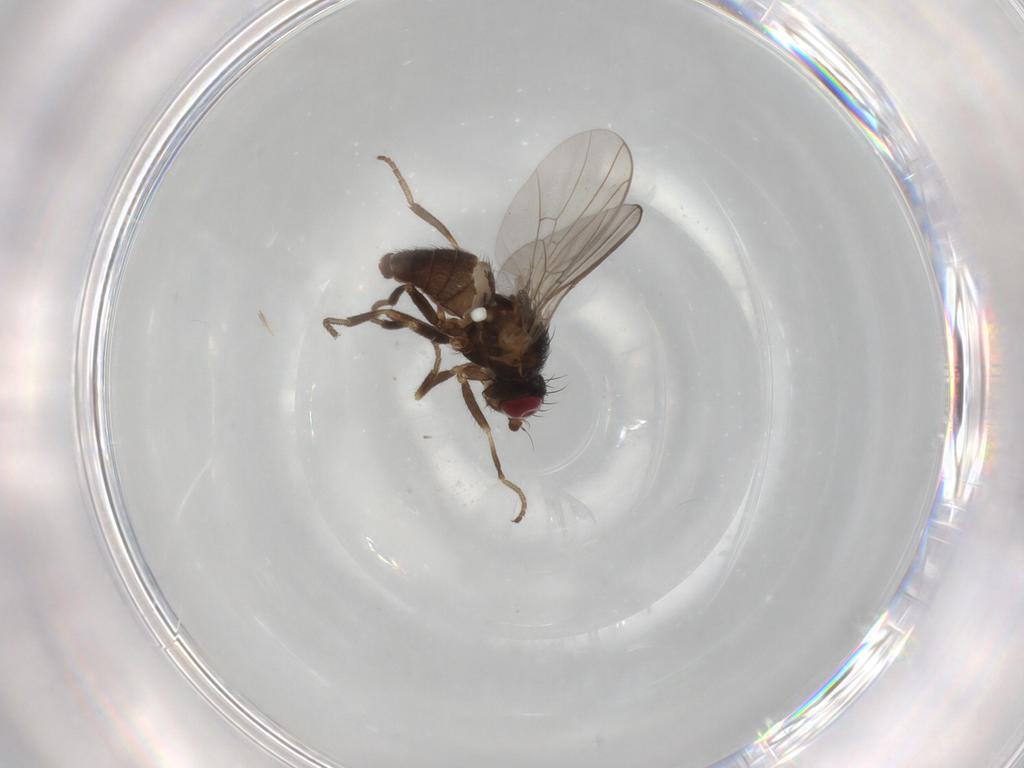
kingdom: Animalia
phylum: Arthropoda
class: Insecta
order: Diptera
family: Agromyzidae
